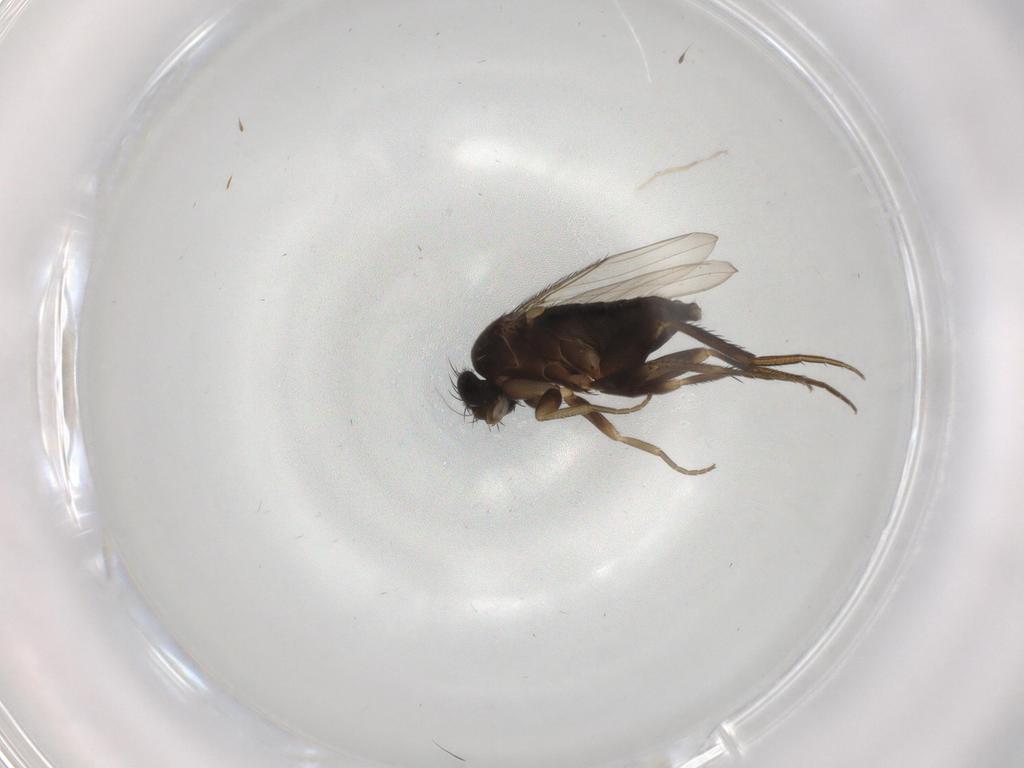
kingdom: Animalia
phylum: Arthropoda
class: Insecta
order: Diptera
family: Phoridae
